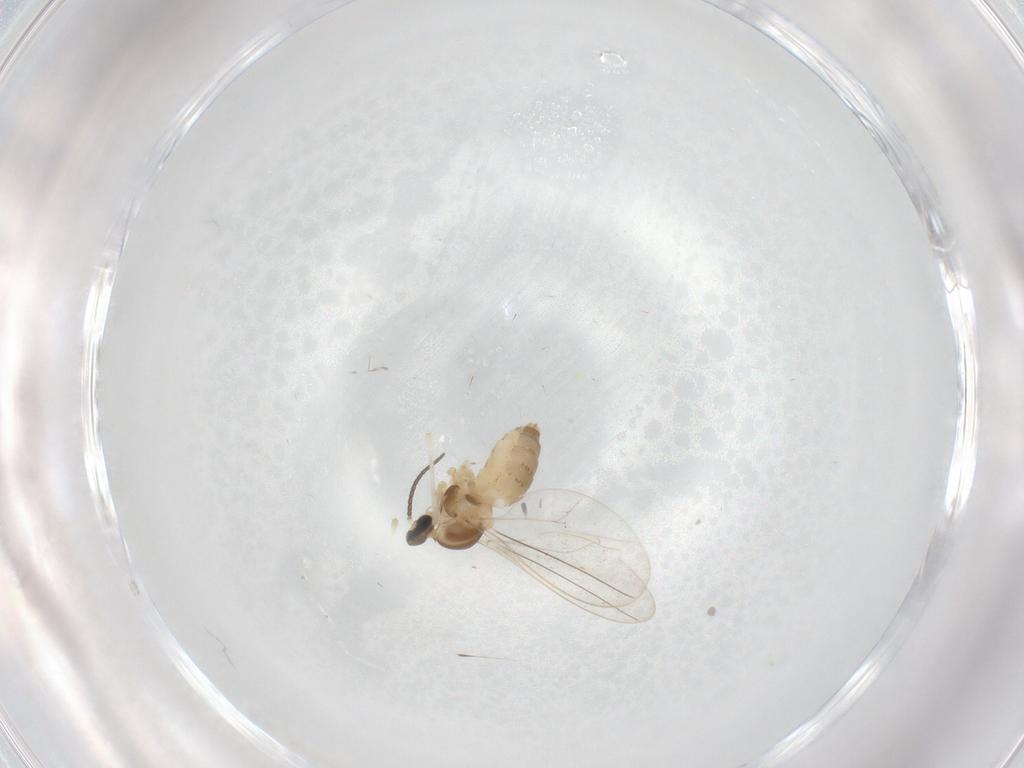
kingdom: Animalia
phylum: Arthropoda
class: Insecta
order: Diptera
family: Cecidomyiidae
